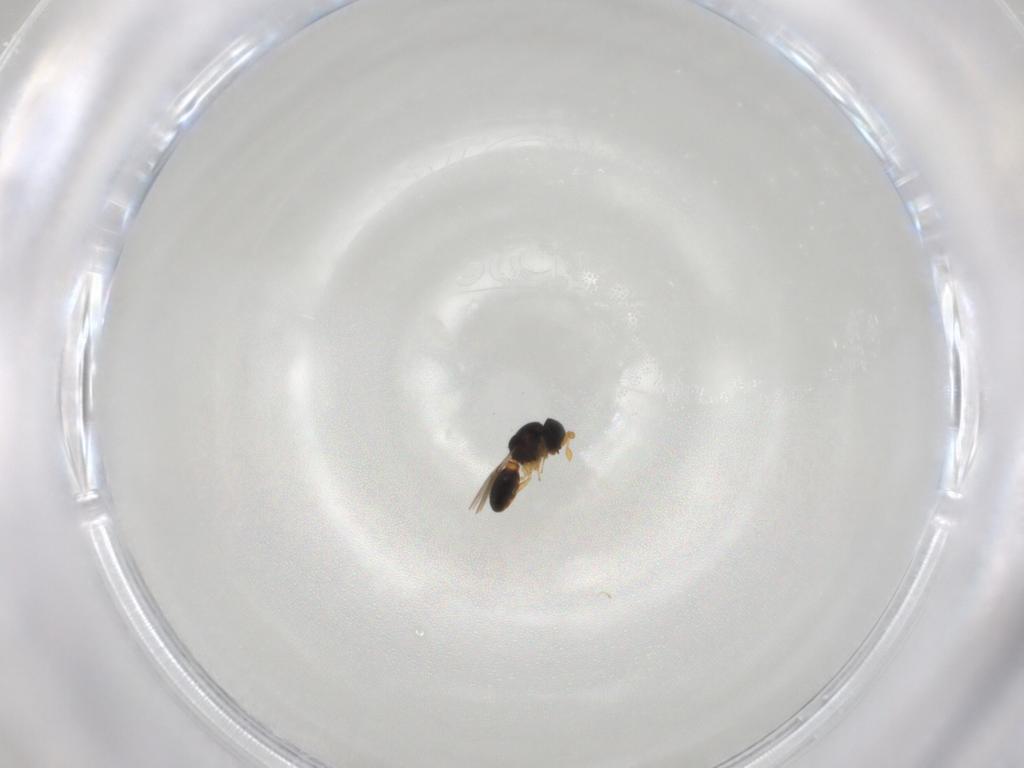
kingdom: Animalia
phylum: Arthropoda
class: Insecta
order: Hymenoptera
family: Scelionidae
